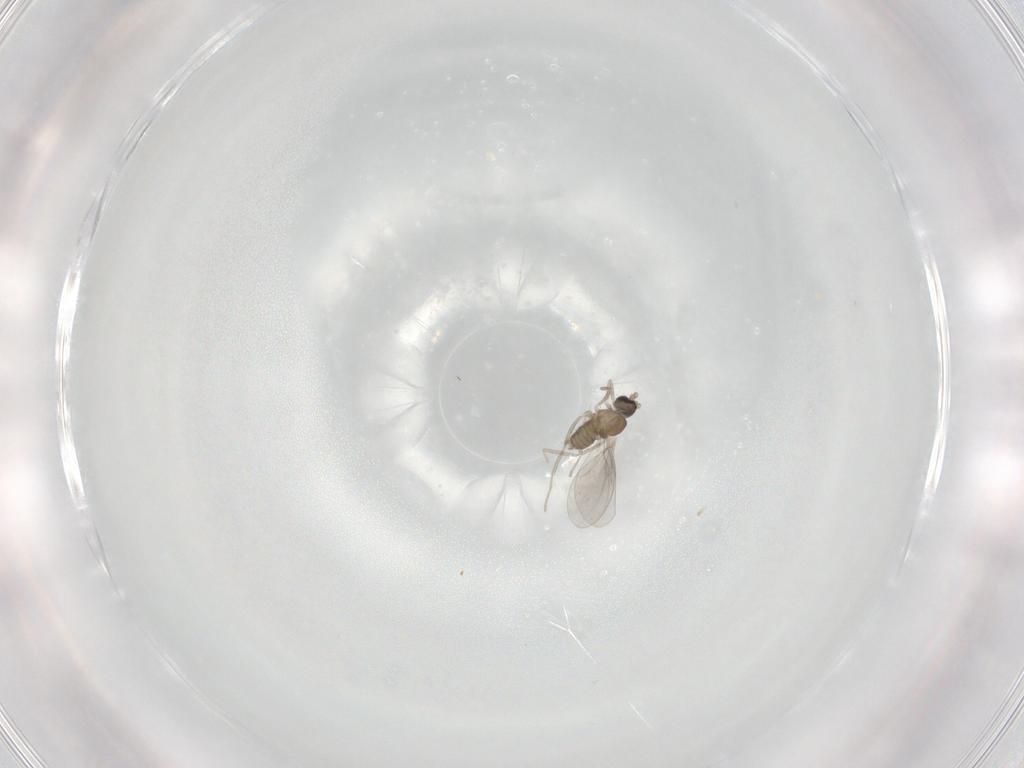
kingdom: Animalia
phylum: Arthropoda
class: Insecta
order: Diptera
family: Cecidomyiidae
